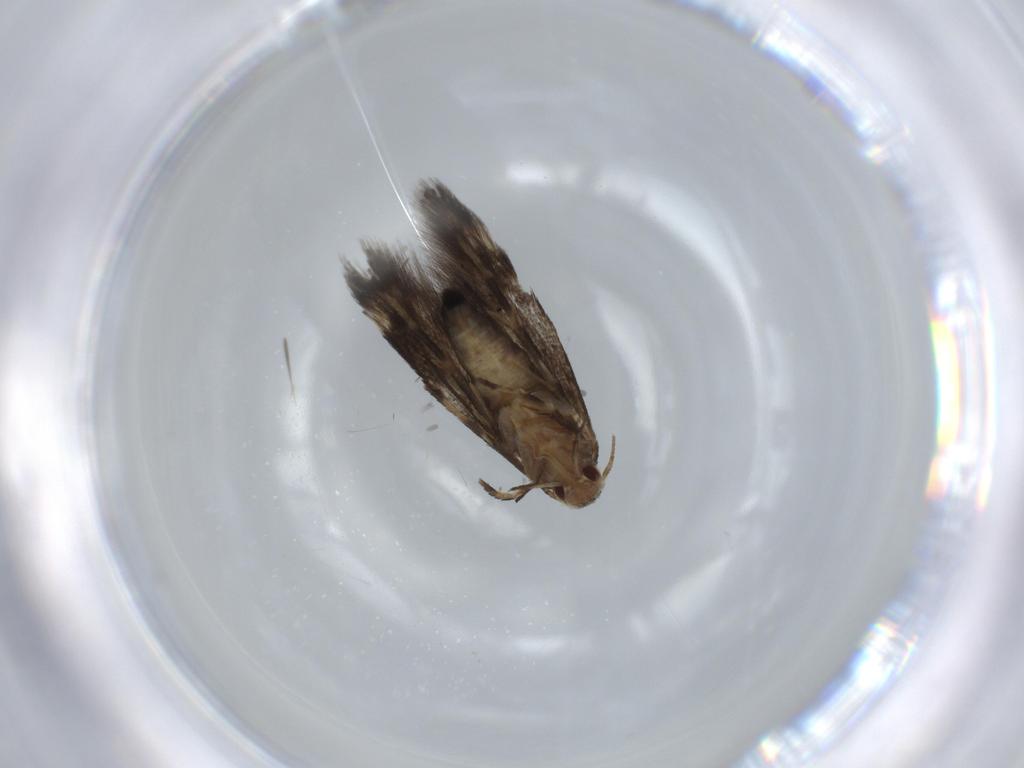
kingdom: Animalia
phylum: Arthropoda
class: Insecta
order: Lepidoptera
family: Cosmopterigidae
